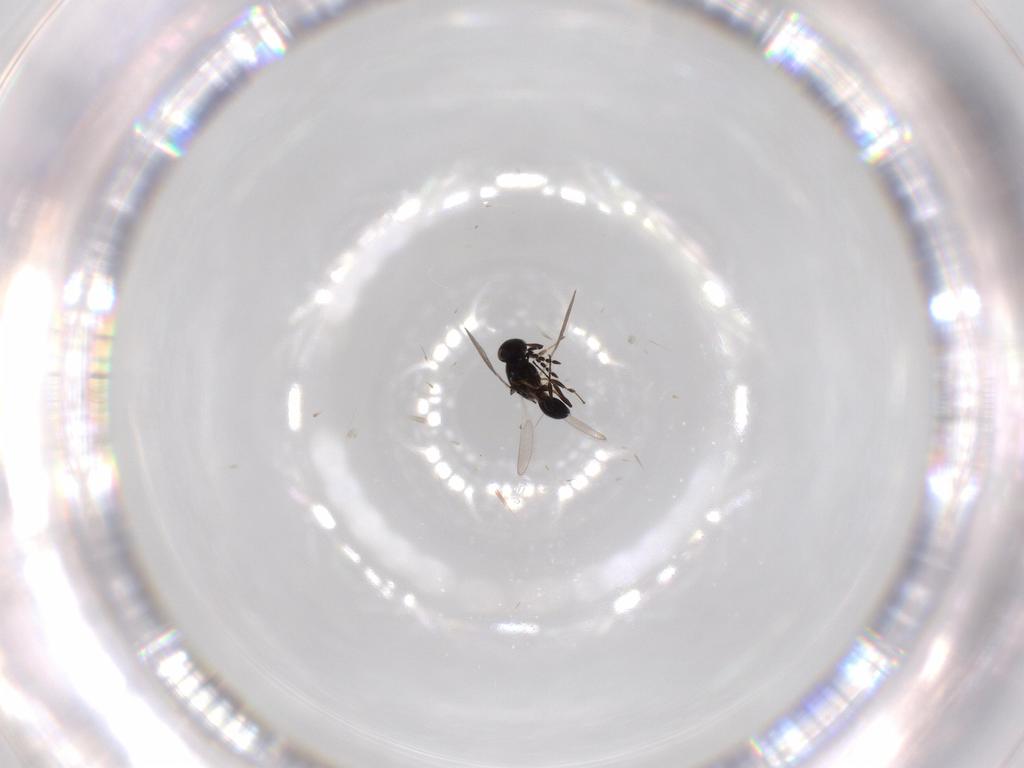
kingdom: Animalia
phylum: Arthropoda
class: Insecta
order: Hymenoptera
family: Platygastridae
